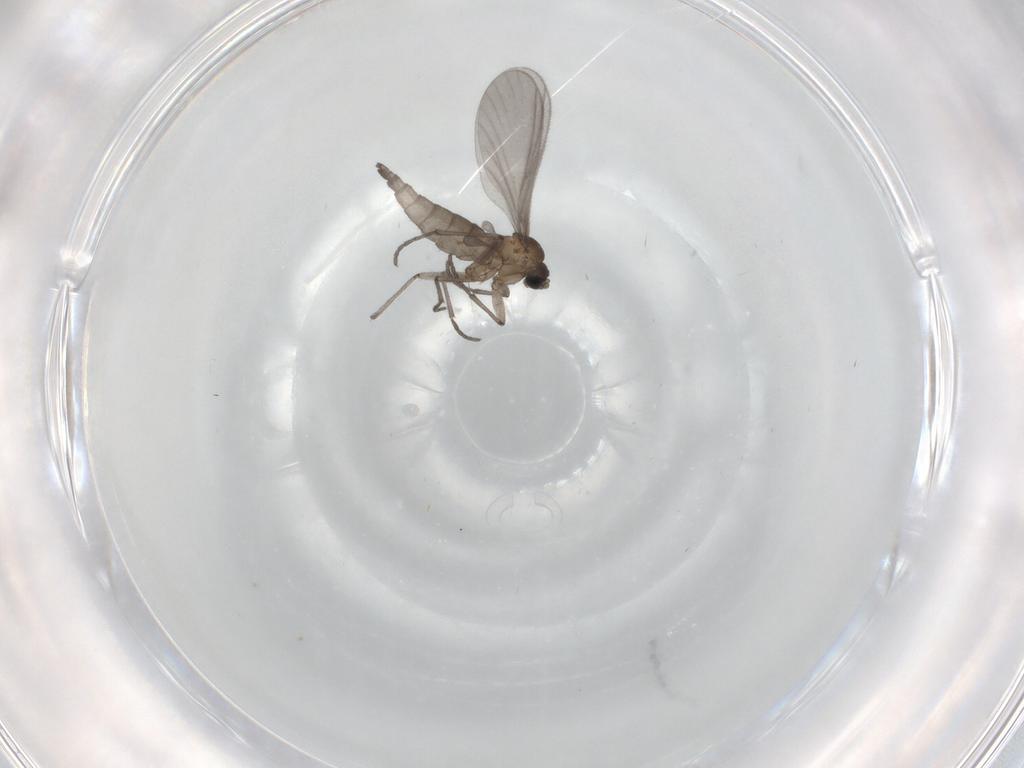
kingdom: Animalia
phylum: Arthropoda
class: Insecta
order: Diptera
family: Sciaridae
